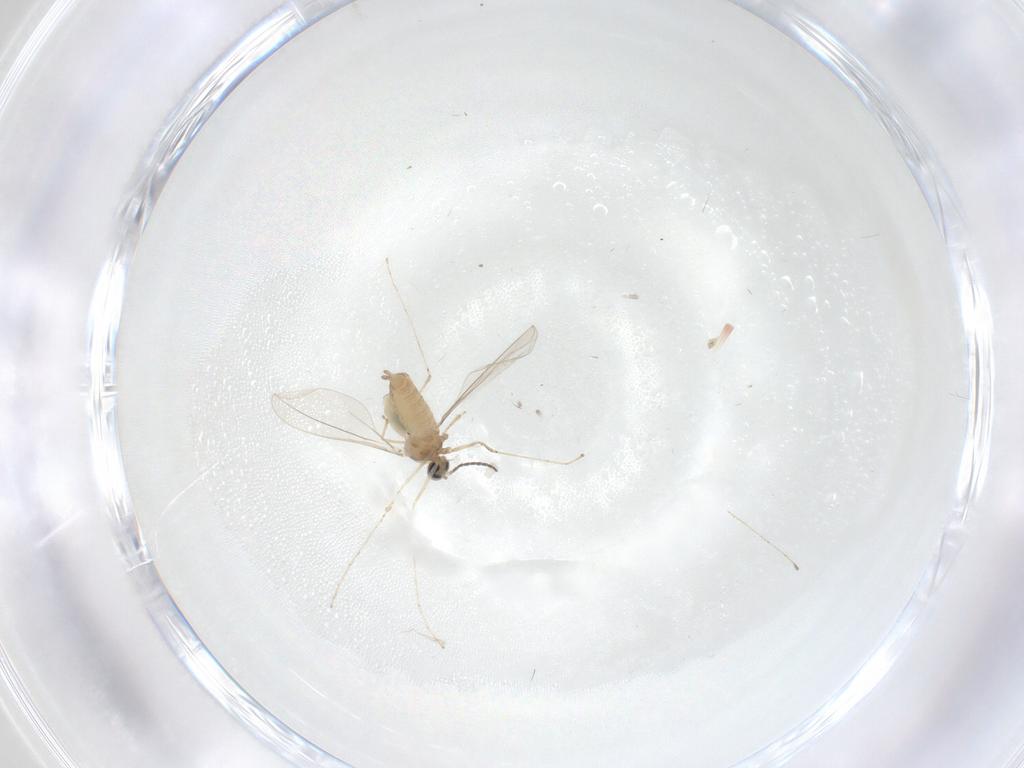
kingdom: Animalia
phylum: Arthropoda
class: Insecta
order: Diptera
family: Cecidomyiidae
